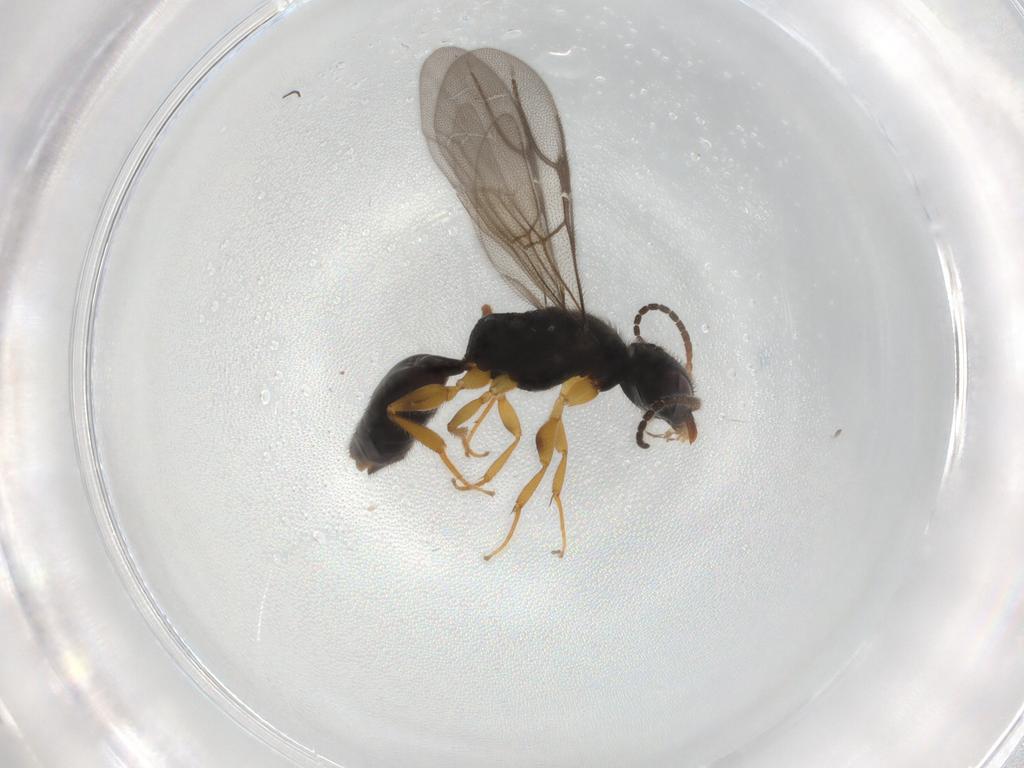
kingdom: Animalia
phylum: Arthropoda
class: Insecta
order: Hymenoptera
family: Bethylidae
